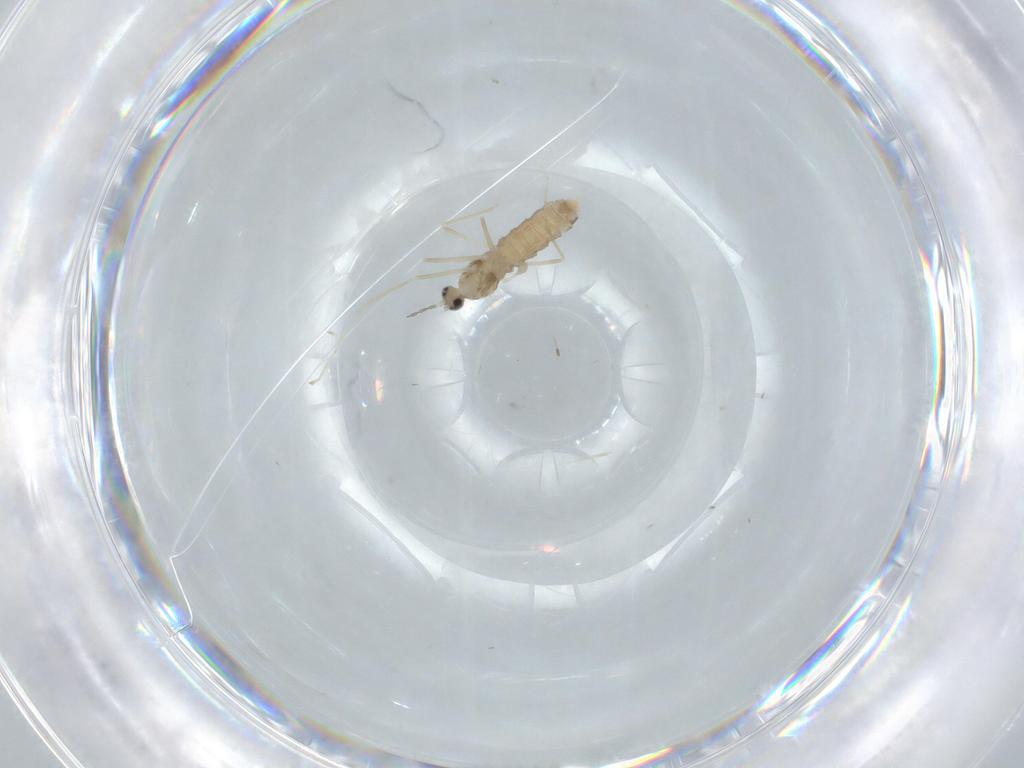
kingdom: Animalia
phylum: Arthropoda
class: Insecta
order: Diptera
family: Cecidomyiidae
